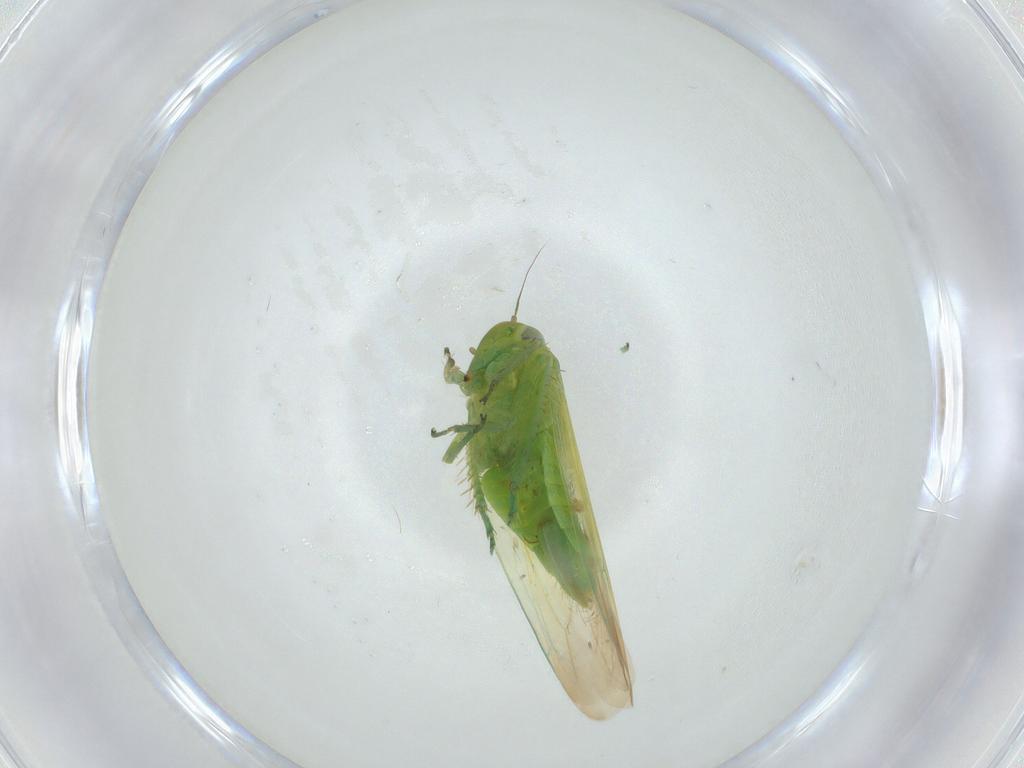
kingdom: Animalia
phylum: Arthropoda
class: Insecta
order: Hemiptera
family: Cicadellidae
